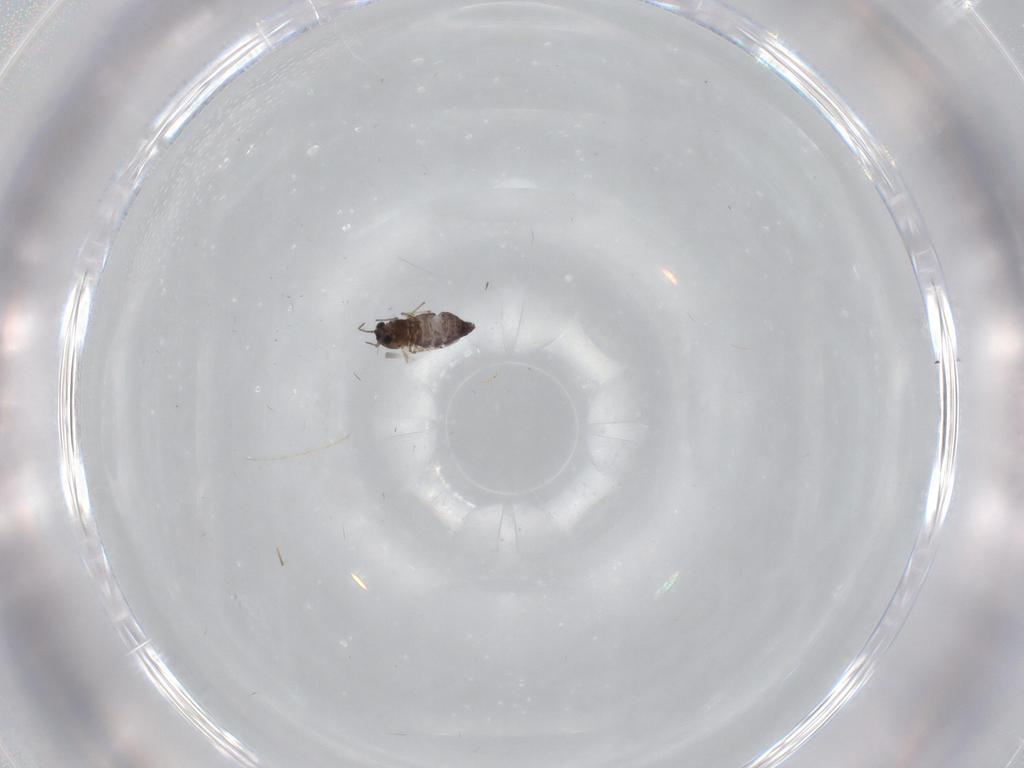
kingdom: Animalia
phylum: Arthropoda
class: Insecta
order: Diptera
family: Chironomidae
